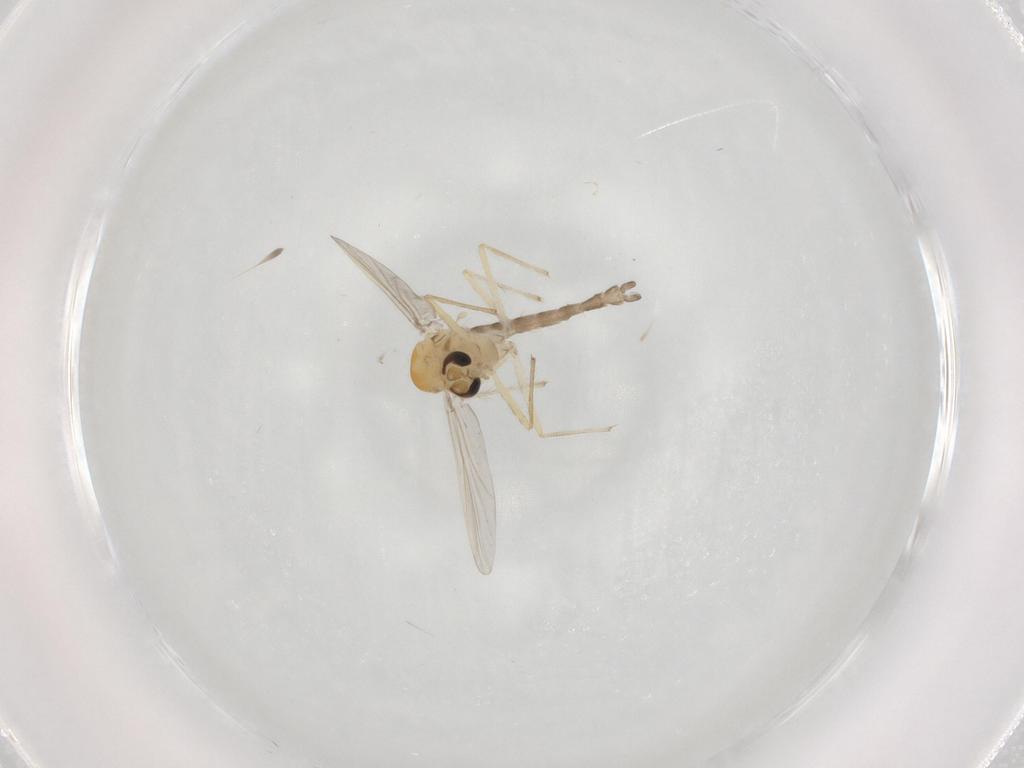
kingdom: Animalia
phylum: Arthropoda
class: Insecta
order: Diptera
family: Chironomidae
